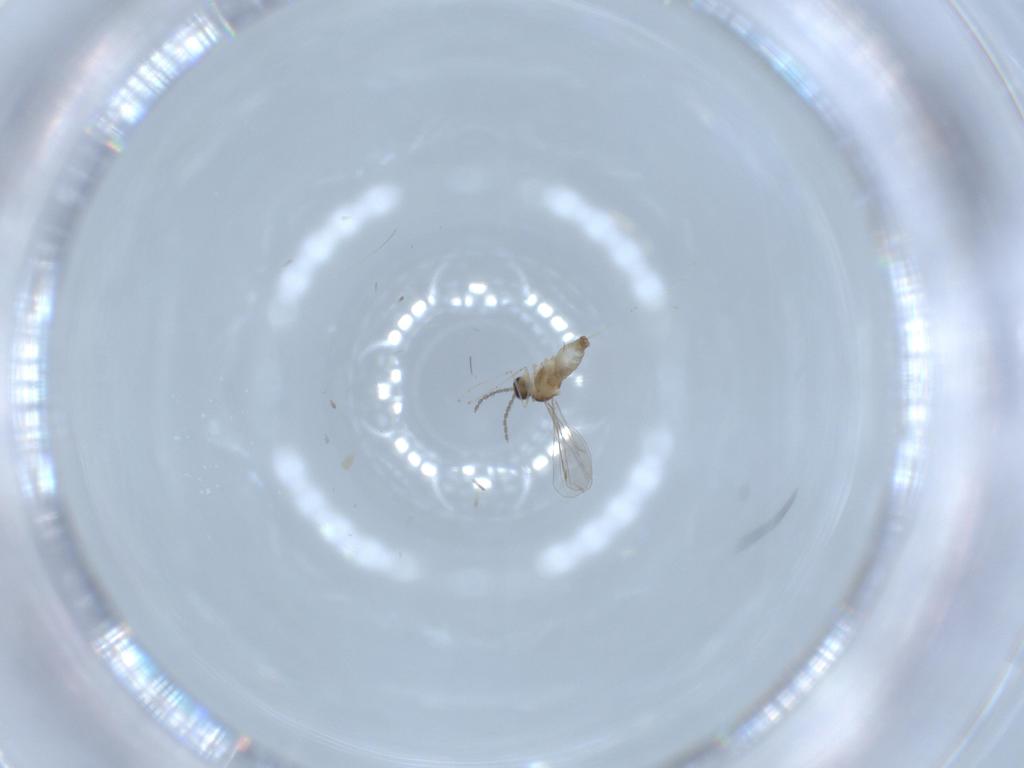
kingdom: Animalia
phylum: Arthropoda
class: Insecta
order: Diptera
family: Cecidomyiidae
